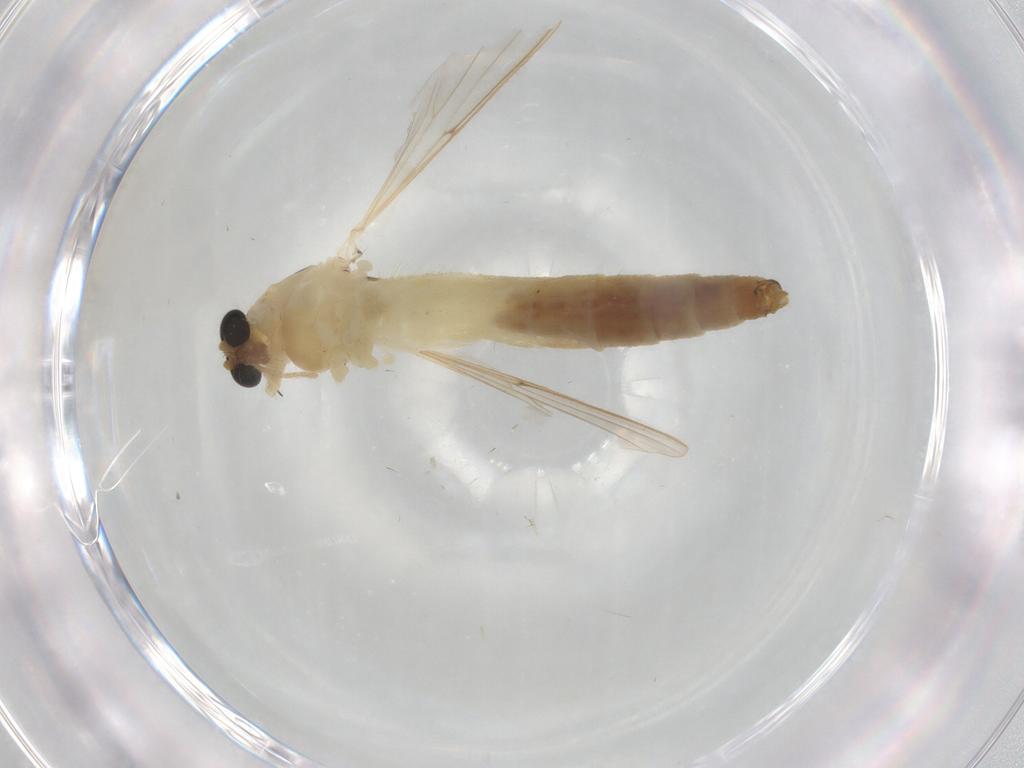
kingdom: Animalia
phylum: Arthropoda
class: Insecta
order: Diptera
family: Chironomidae
